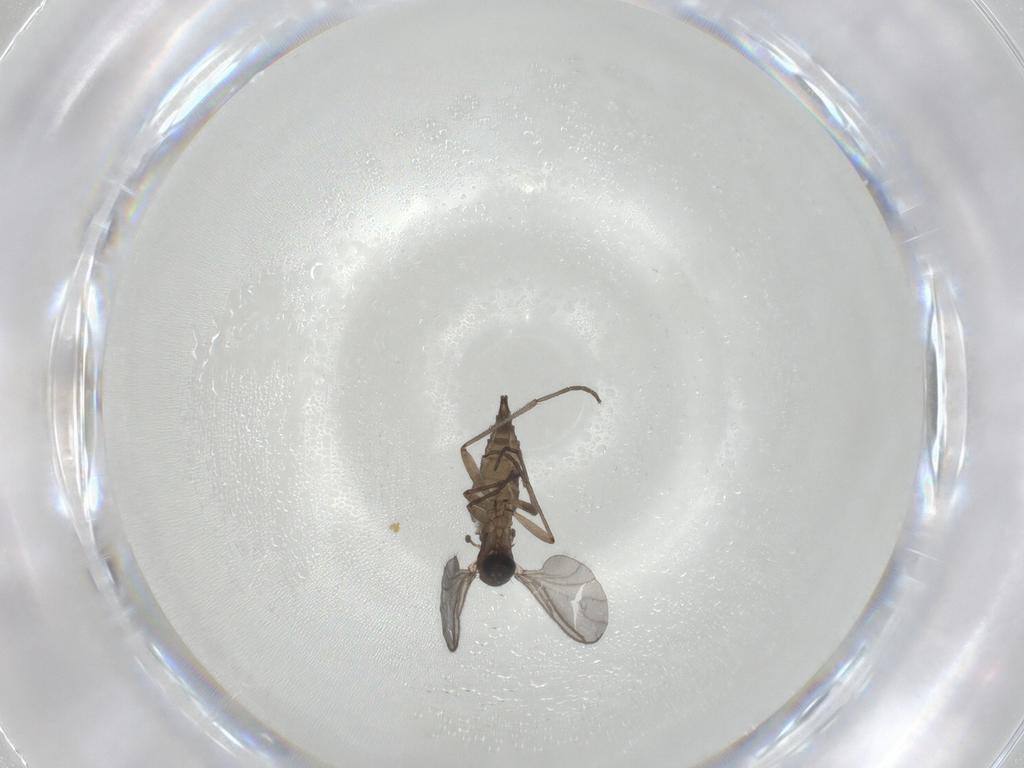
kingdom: Animalia
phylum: Arthropoda
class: Insecta
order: Diptera
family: Sciaridae
